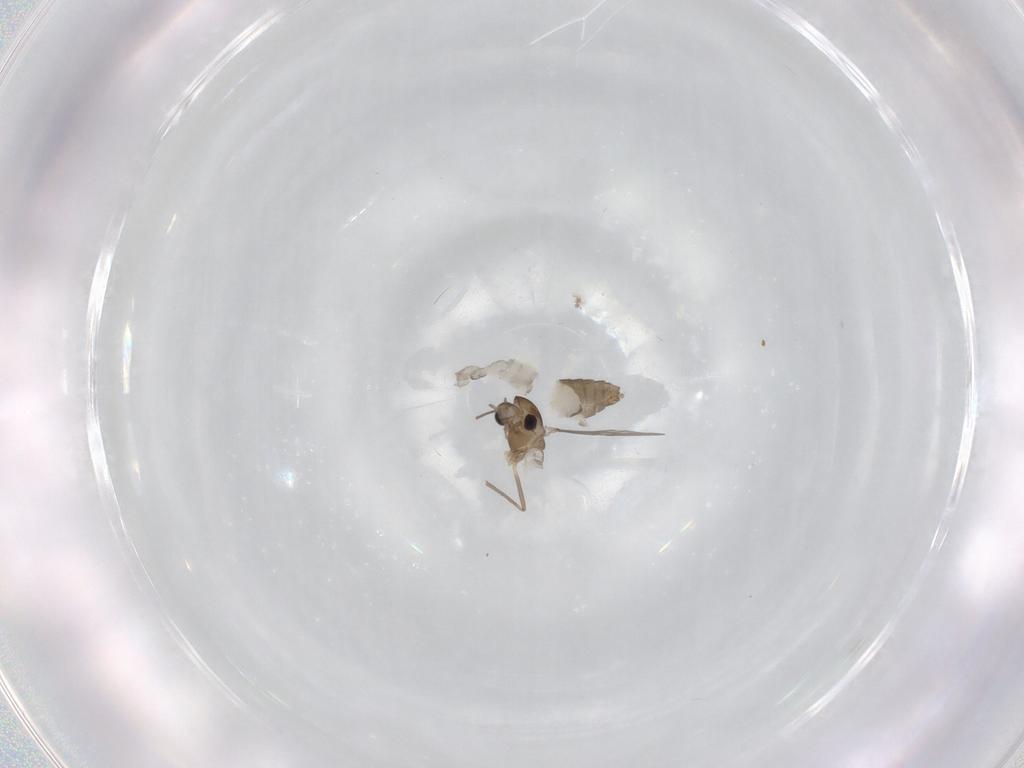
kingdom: Animalia
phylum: Arthropoda
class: Insecta
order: Diptera
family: Chironomidae
